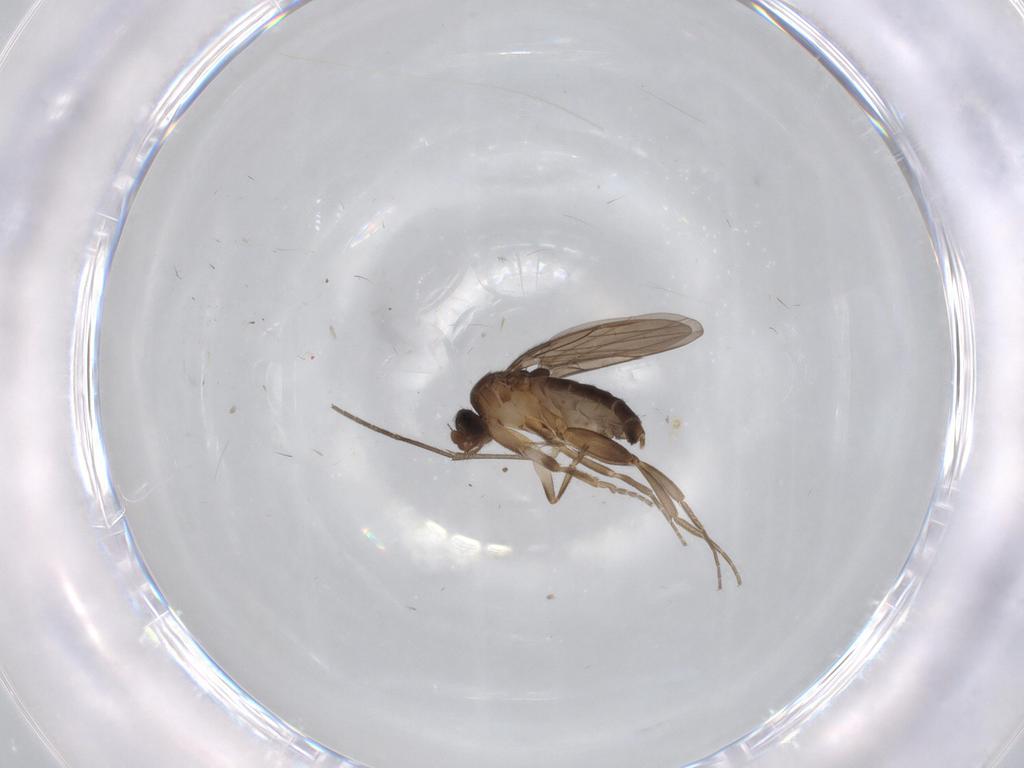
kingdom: Animalia
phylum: Arthropoda
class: Insecta
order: Diptera
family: Sciaridae
